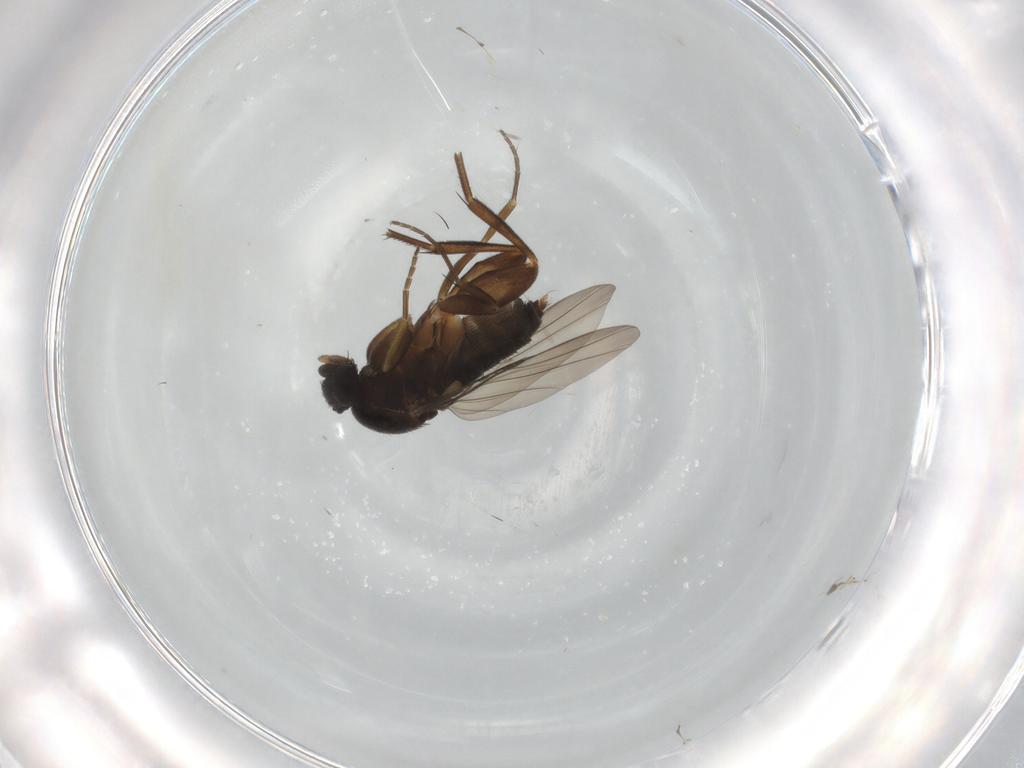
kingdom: Animalia
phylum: Arthropoda
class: Insecta
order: Diptera
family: Phoridae
